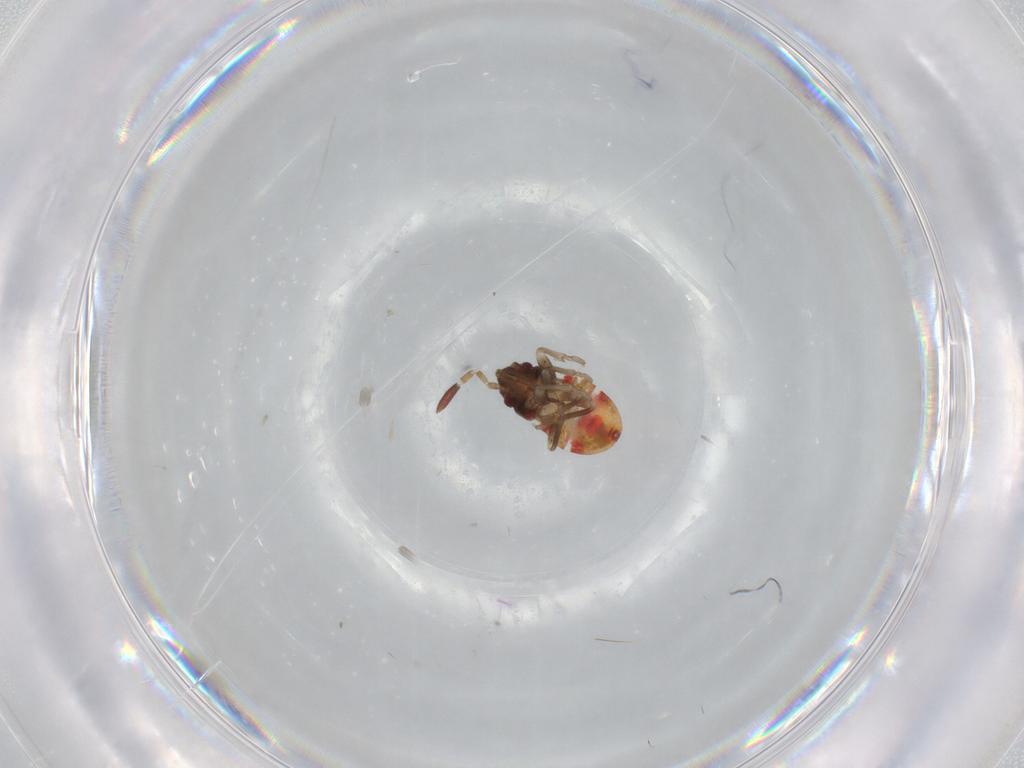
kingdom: Animalia
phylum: Arthropoda
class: Insecta
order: Hemiptera
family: Rhyparochromidae
